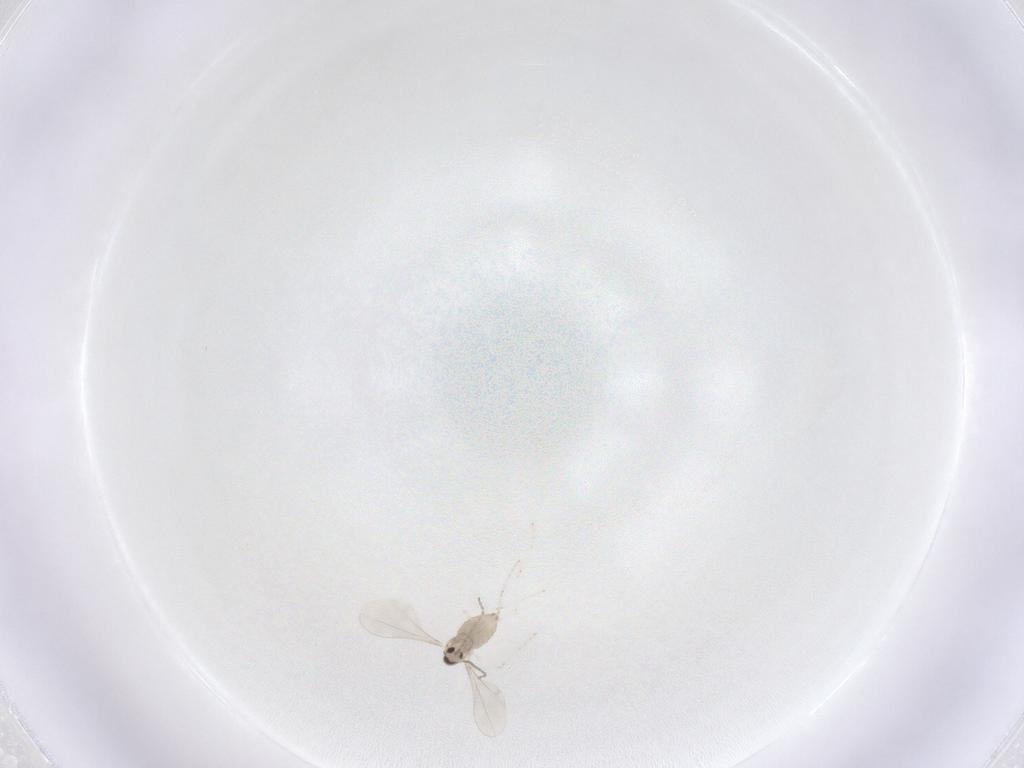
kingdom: Animalia
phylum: Arthropoda
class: Insecta
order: Diptera
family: Cecidomyiidae
